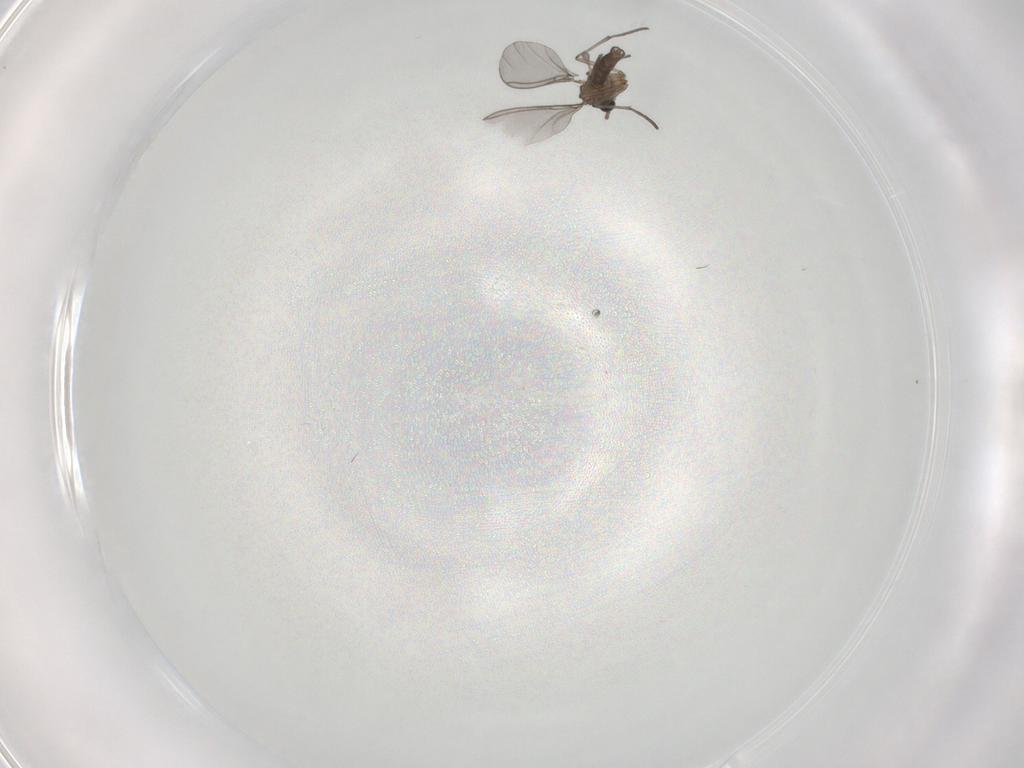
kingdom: Animalia
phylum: Arthropoda
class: Insecta
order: Diptera
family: Sciaridae
